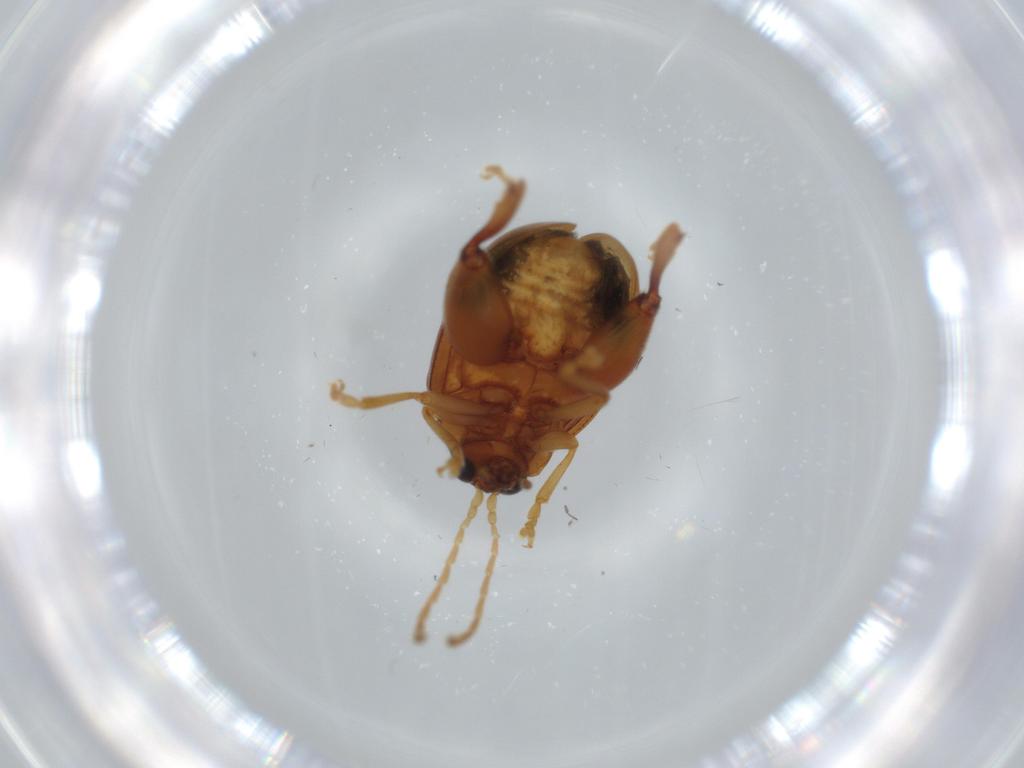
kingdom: Animalia
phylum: Arthropoda
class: Insecta
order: Coleoptera
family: Chrysomelidae
